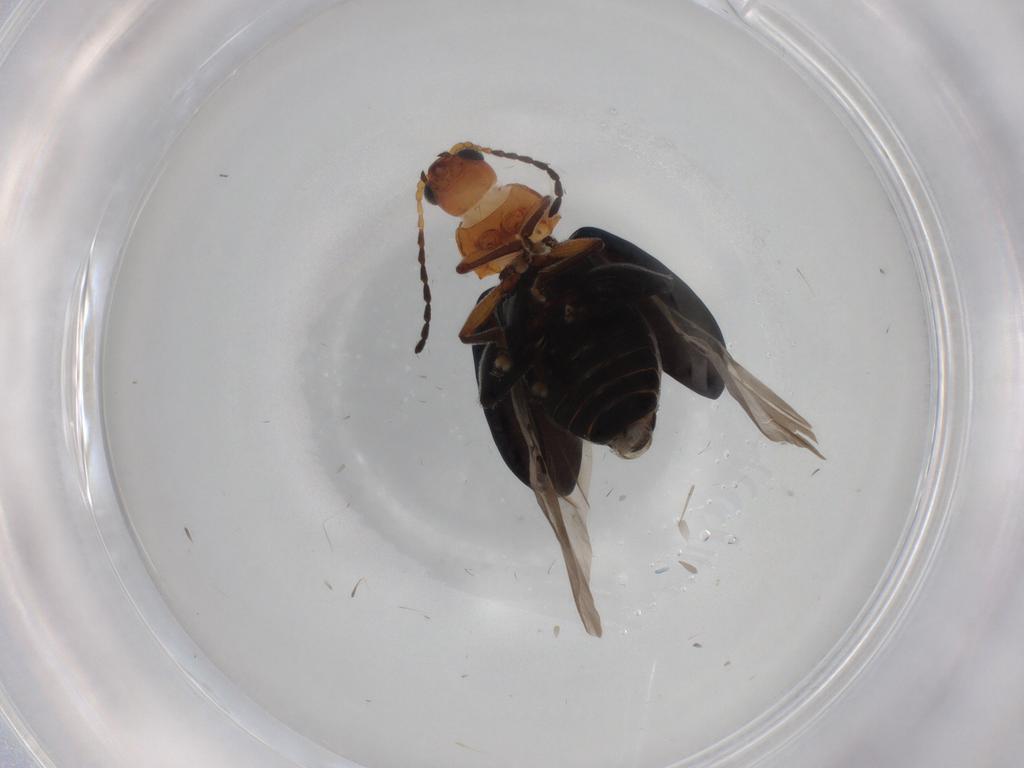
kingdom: Animalia
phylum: Arthropoda
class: Insecta
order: Coleoptera
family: Chrysomelidae
